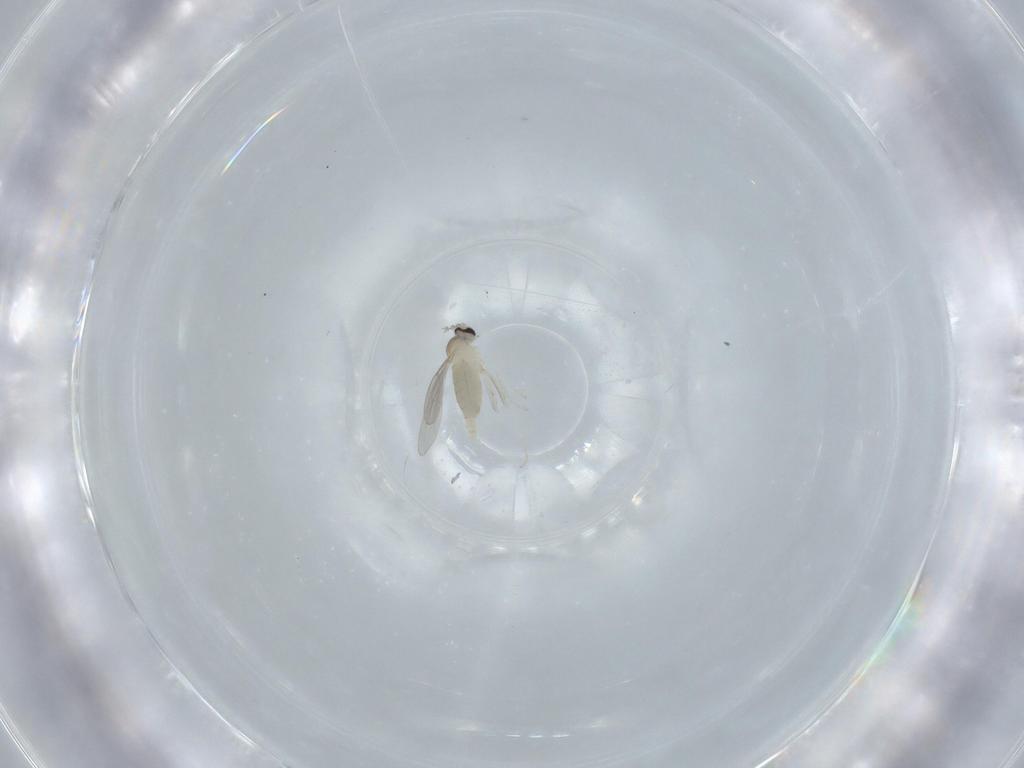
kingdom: Animalia
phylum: Arthropoda
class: Insecta
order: Diptera
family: Cecidomyiidae
